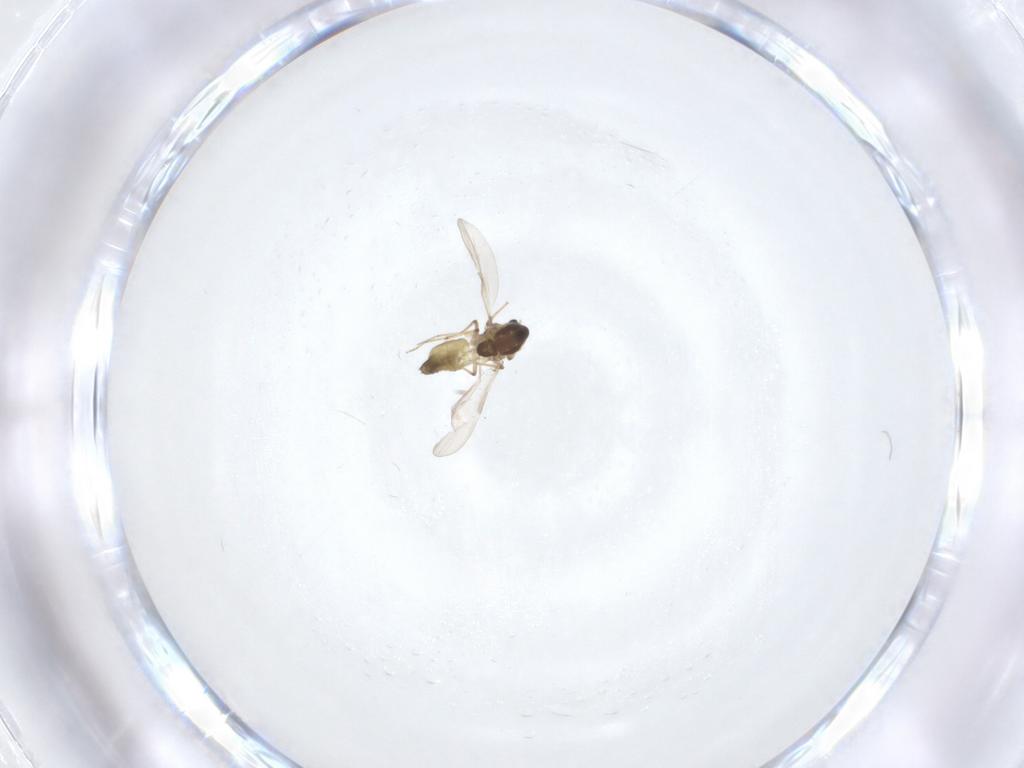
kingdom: Animalia
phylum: Arthropoda
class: Insecta
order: Diptera
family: Chironomidae
